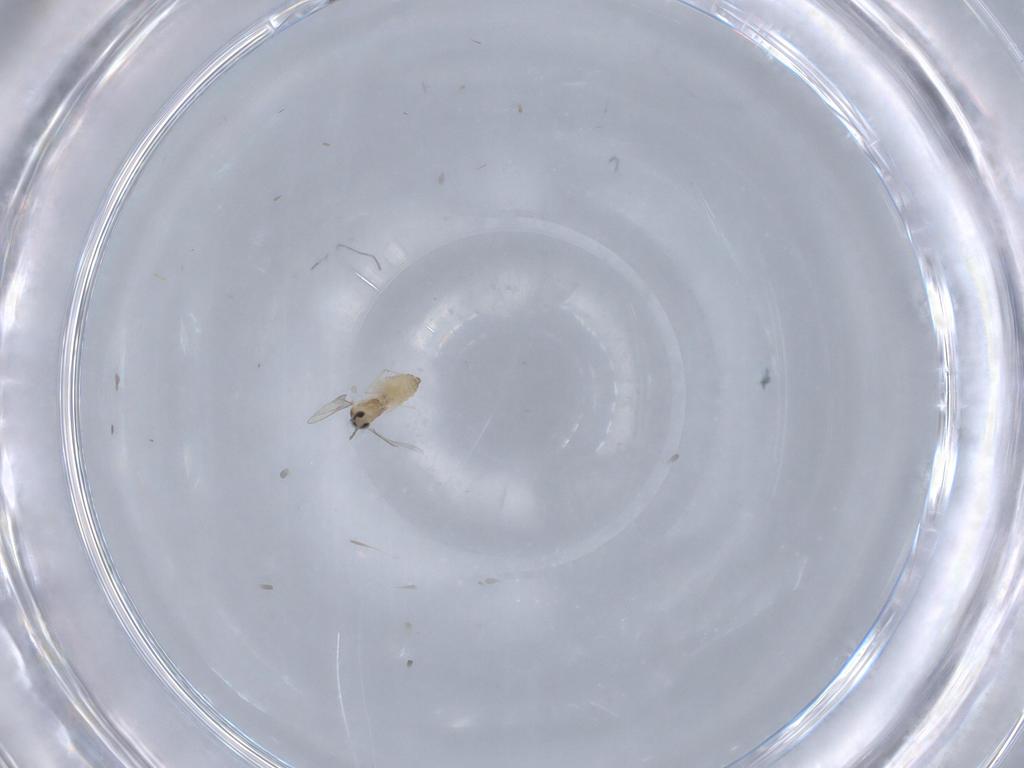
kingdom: Animalia
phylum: Arthropoda
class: Insecta
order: Diptera
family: Cecidomyiidae
